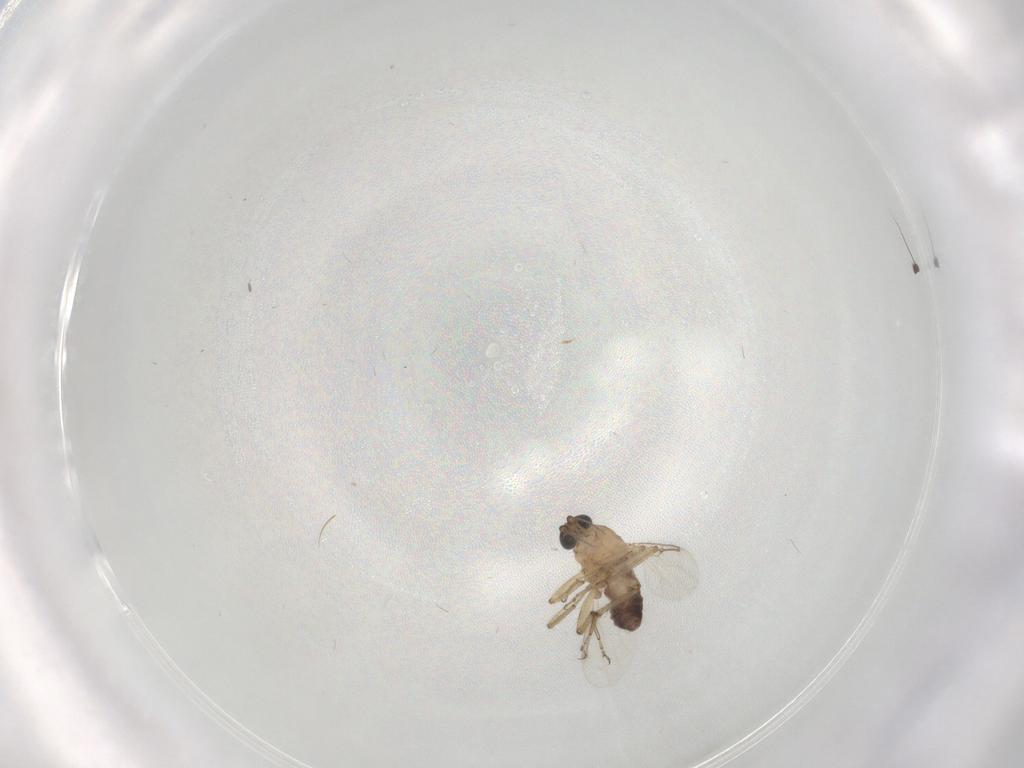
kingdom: Animalia
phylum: Arthropoda
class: Insecta
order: Diptera
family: Ceratopogonidae
